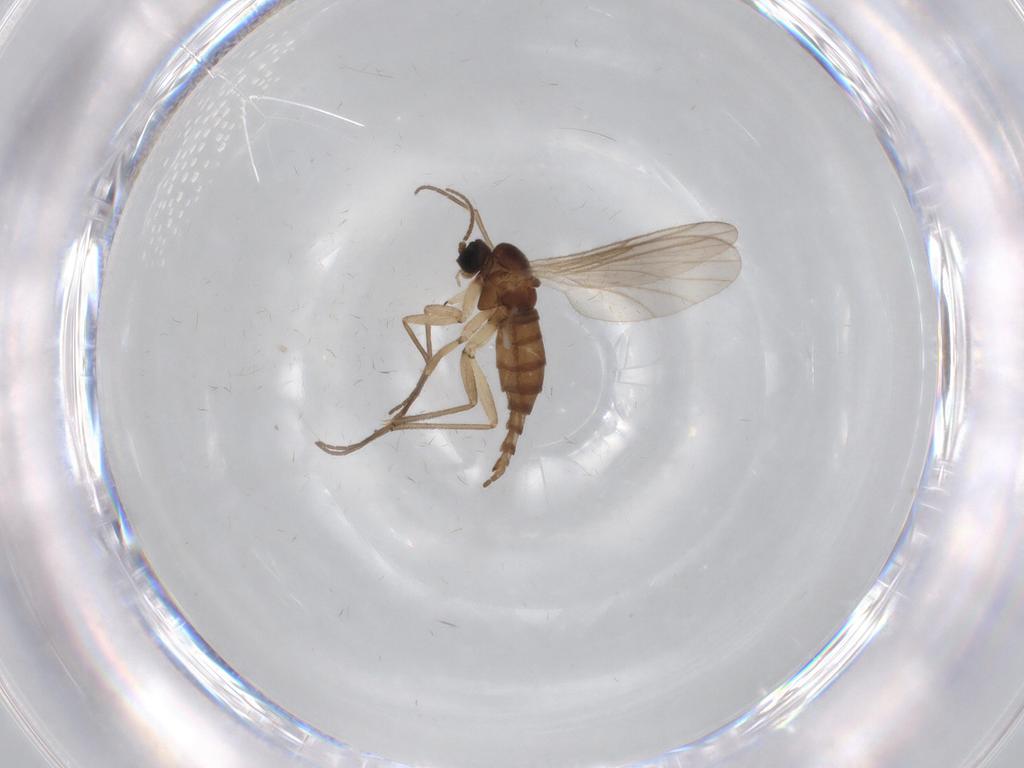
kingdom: Animalia
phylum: Arthropoda
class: Insecta
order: Diptera
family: Sciaridae
